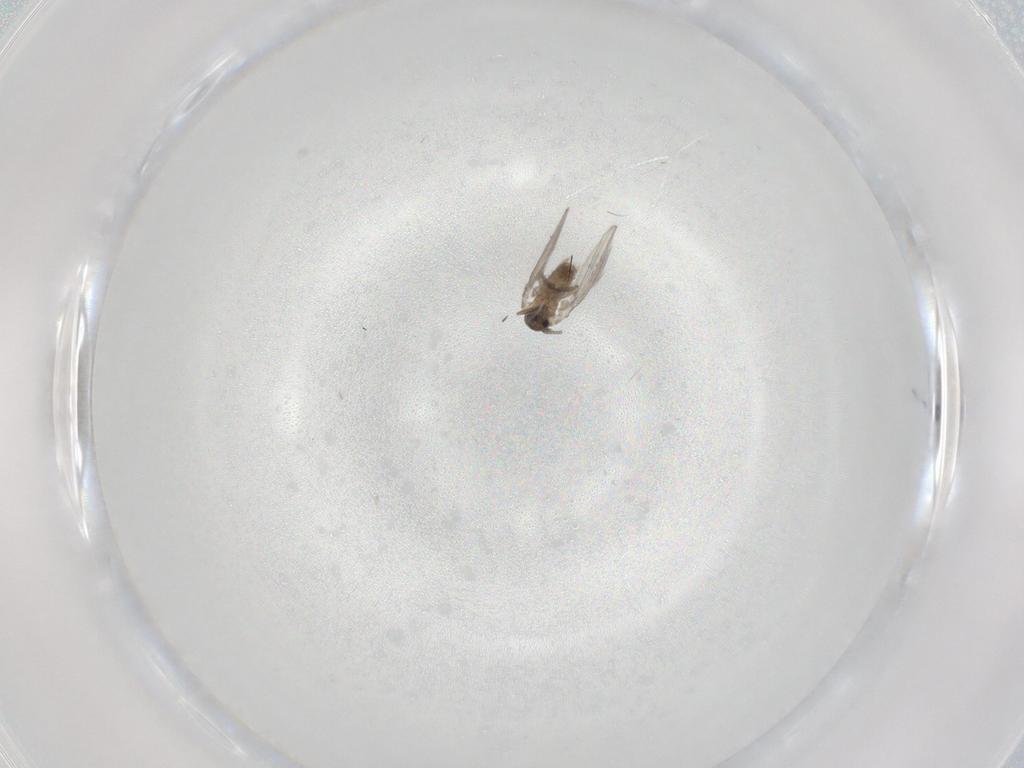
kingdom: Animalia
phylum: Arthropoda
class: Insecta
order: Diptera
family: Psychodidae
